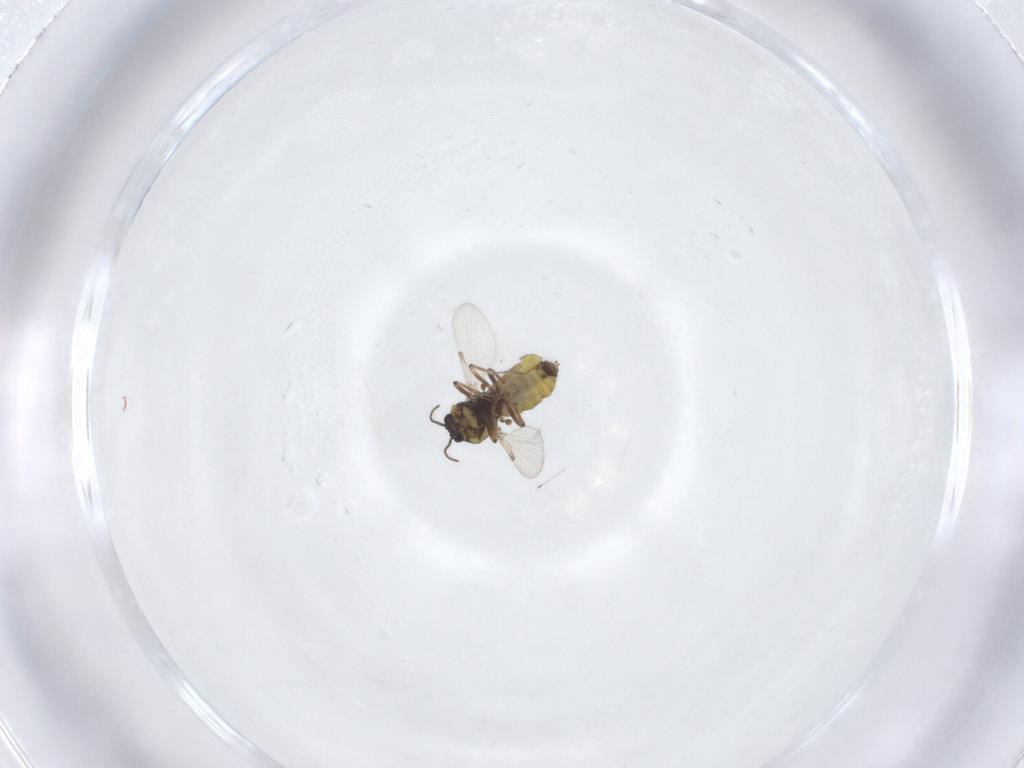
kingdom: Animalia
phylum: Arthropoda
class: Insecta
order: Diptera
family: Ceratopogonidae
